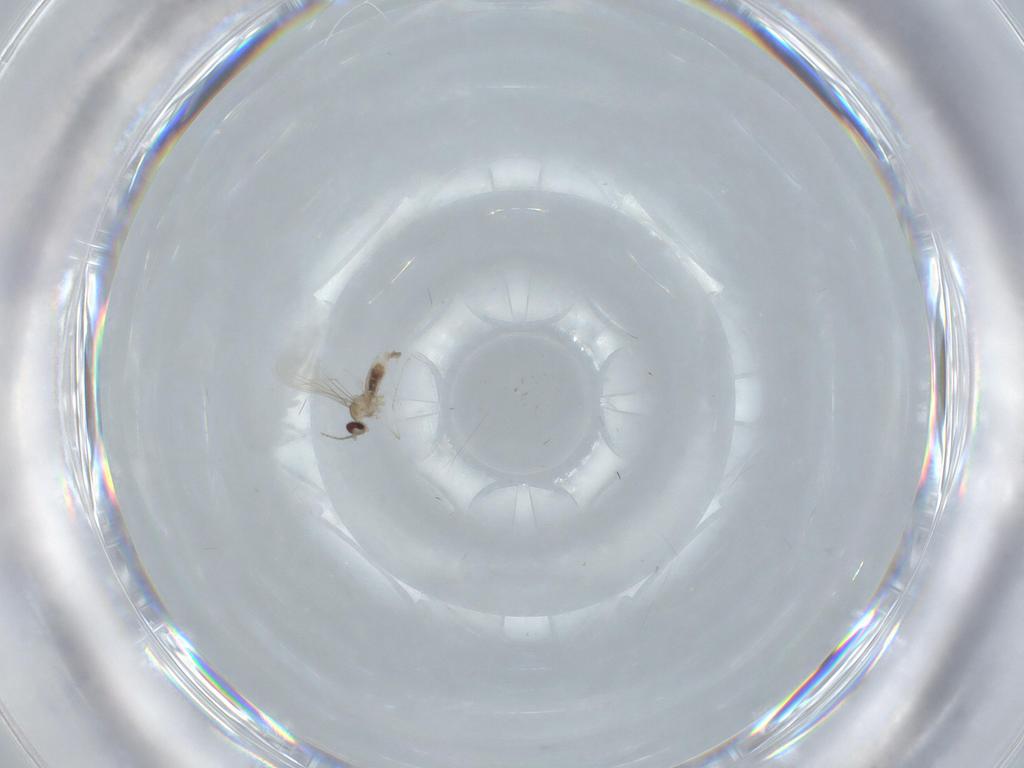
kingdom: Animalia
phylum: Arthropoda
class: Insecta
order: Diptera
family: Cecidomyiidae
